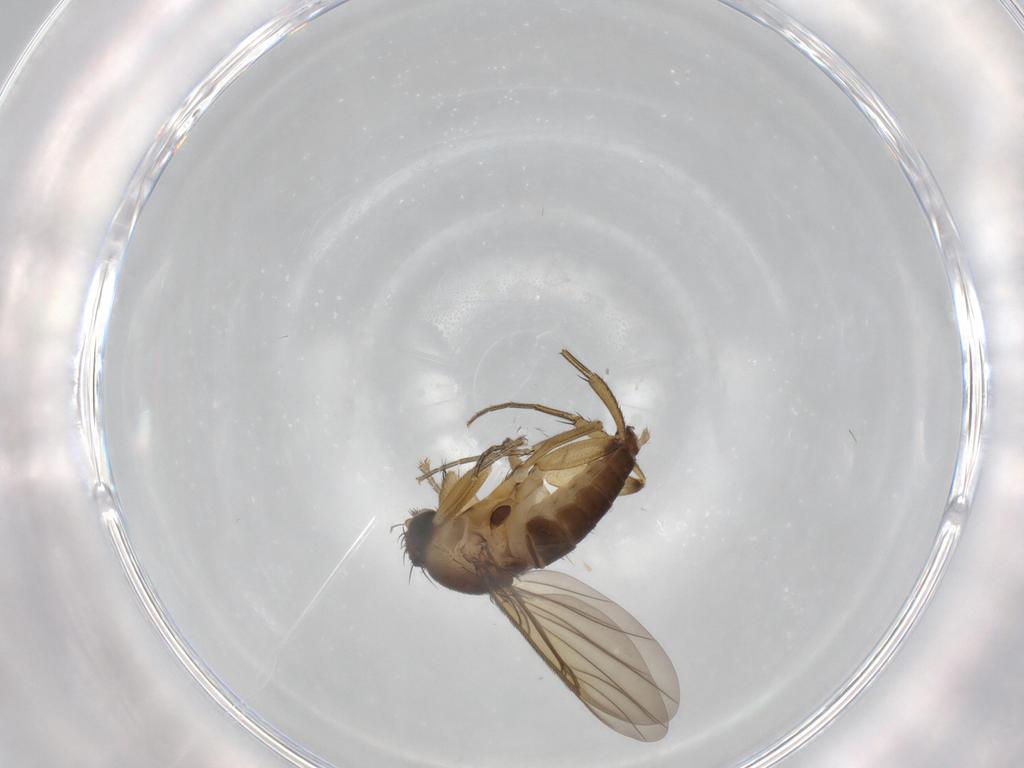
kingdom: Animalia
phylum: Arthropoda
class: Insecta
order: Diptera
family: Phoridae
